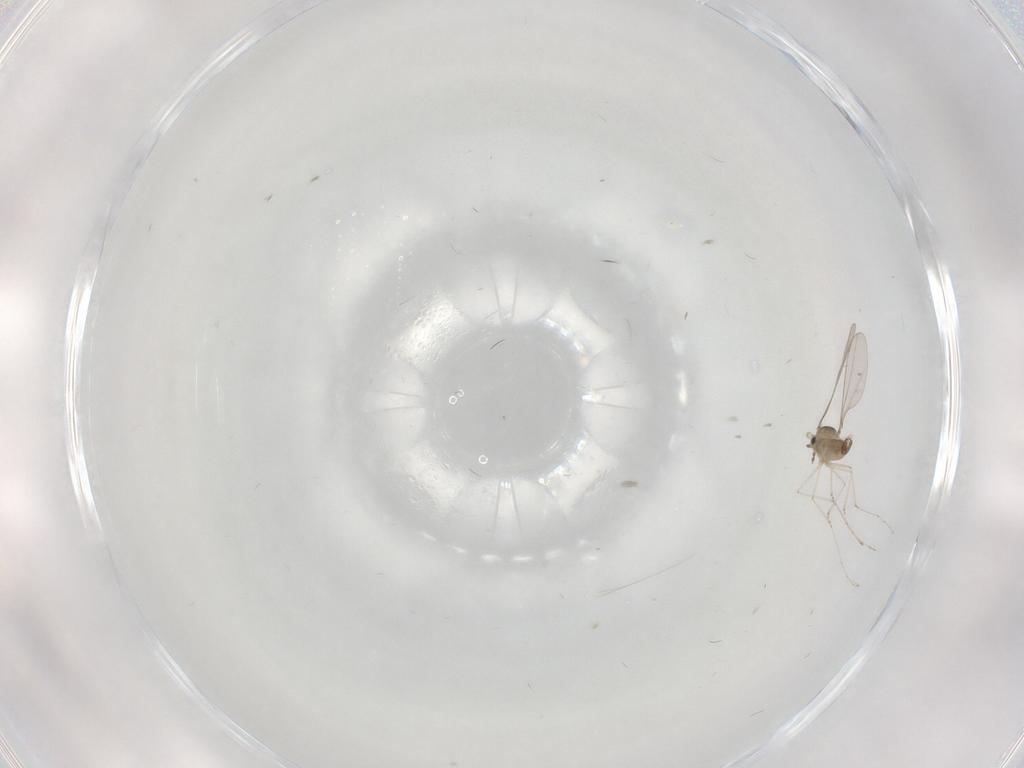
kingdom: Animalia
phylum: Arthropoda
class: Insecta
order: Diptera
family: Cecidomyiidae
